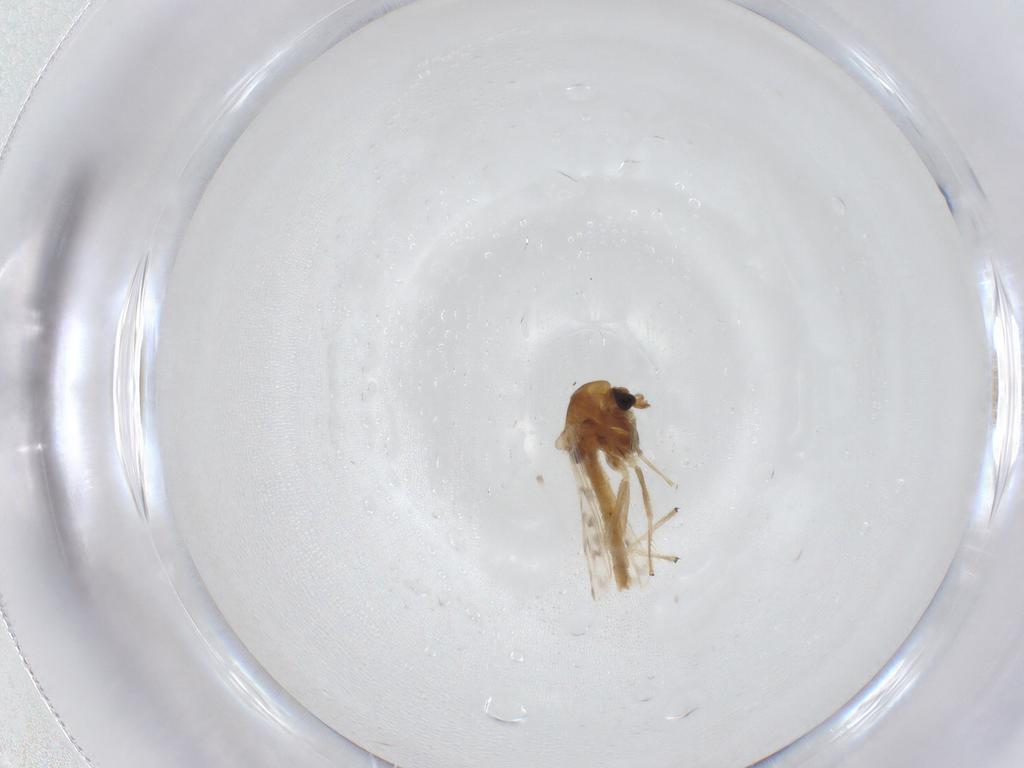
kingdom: Animalia
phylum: Arthropoda
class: Insecta
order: Diptera
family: Chironomidae
